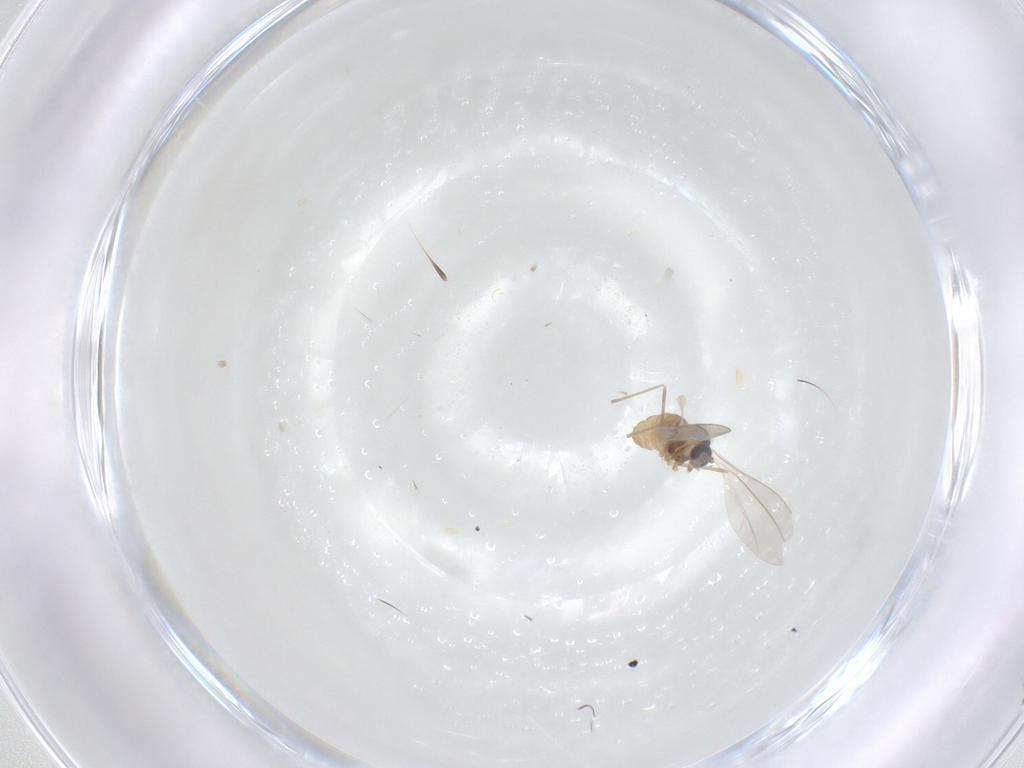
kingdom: Animalia
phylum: Arthropoda
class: Insecta
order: Diptera
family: Cecidomyiidae
